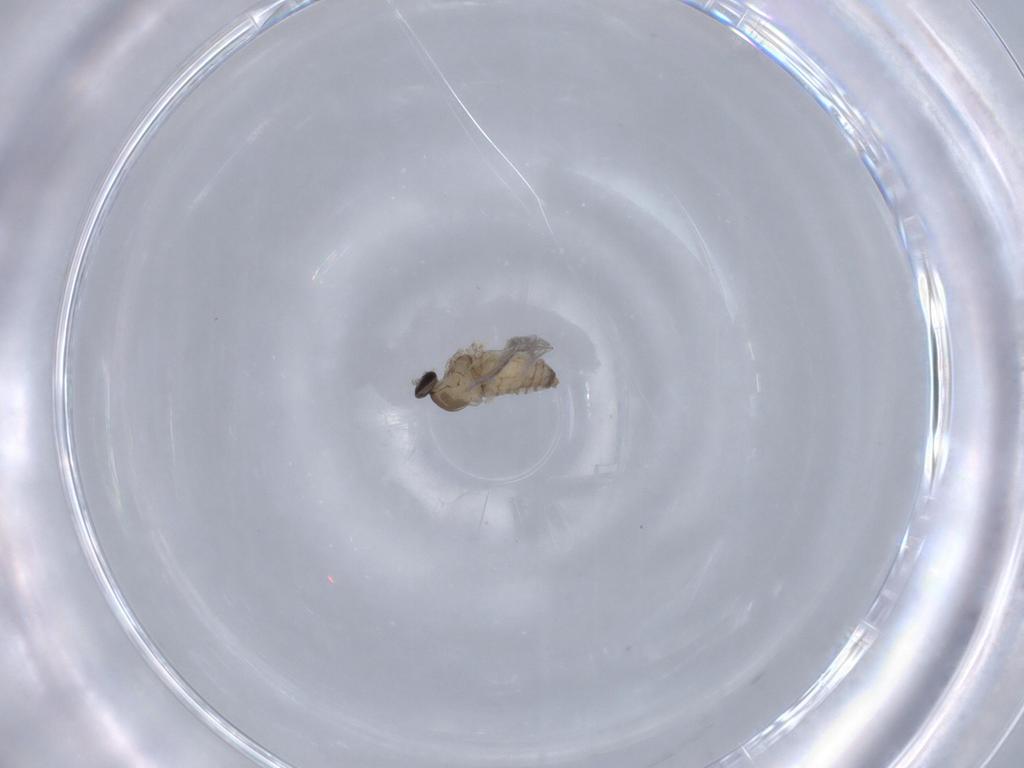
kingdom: Animalia
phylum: Arthropoda
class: Insecta
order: Diptera
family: Cecidomyiidae
